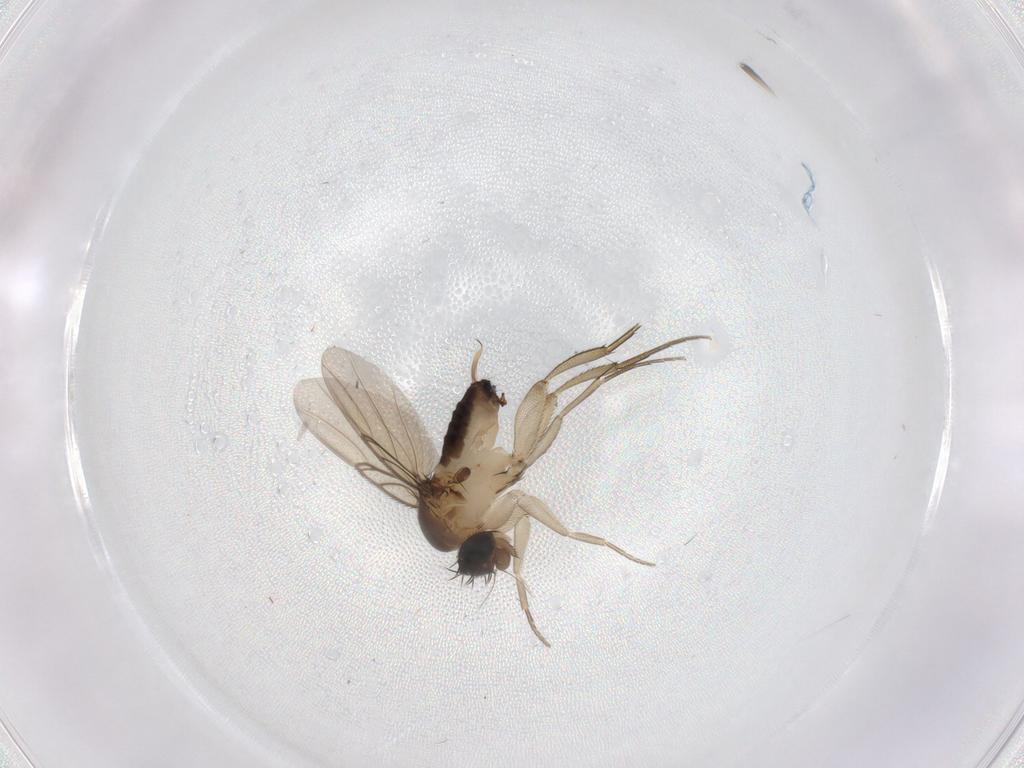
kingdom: Animalia
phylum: Arthropoda
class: Insecta
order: Diptera
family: Phoridae
